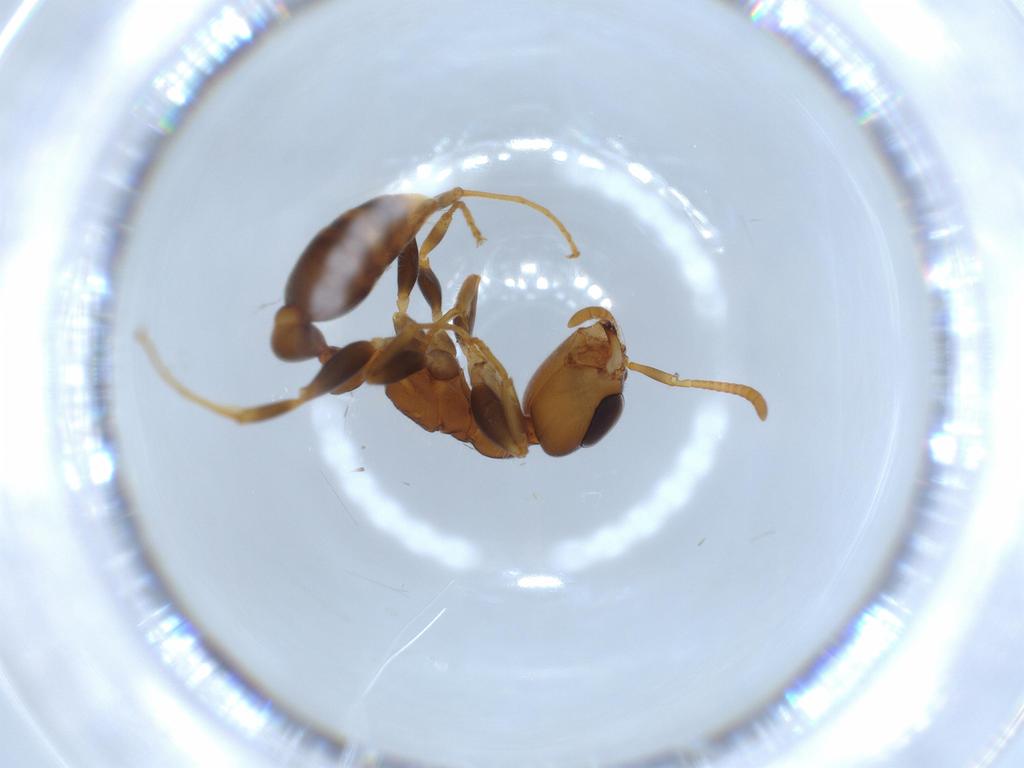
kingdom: Animalia
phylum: Arthropoda
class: Insecta
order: Hymenoptera
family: Formicidae
